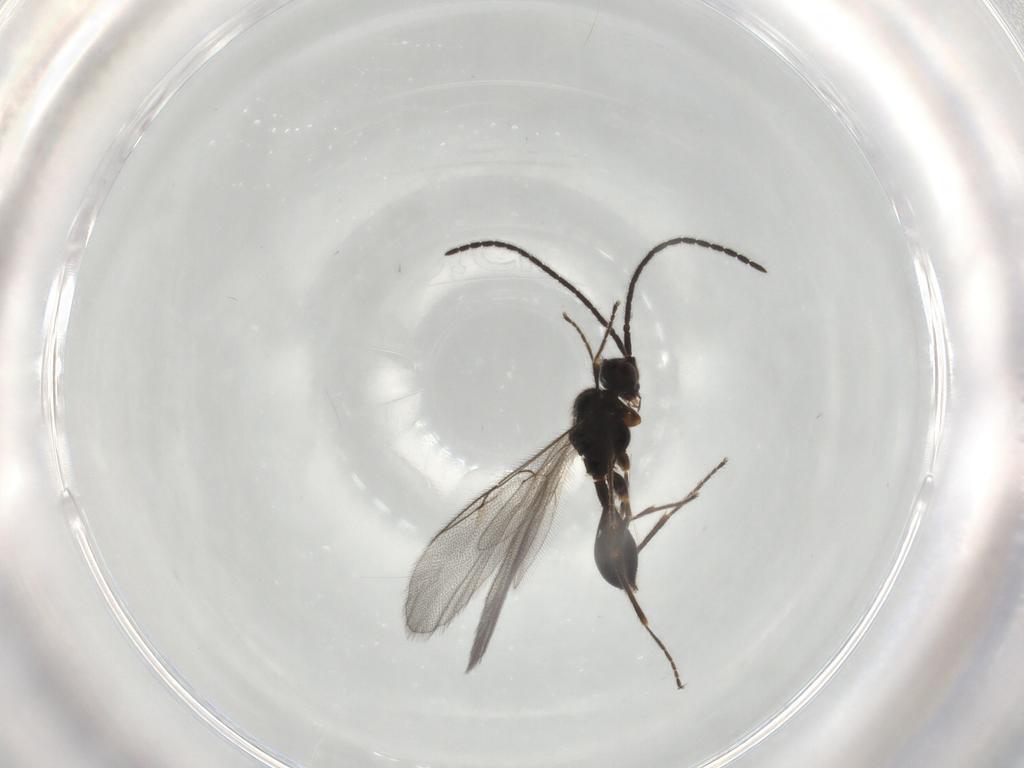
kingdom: Animalia
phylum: Arthropoda
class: Insecta
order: Hymenoptera
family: Diapriidae
